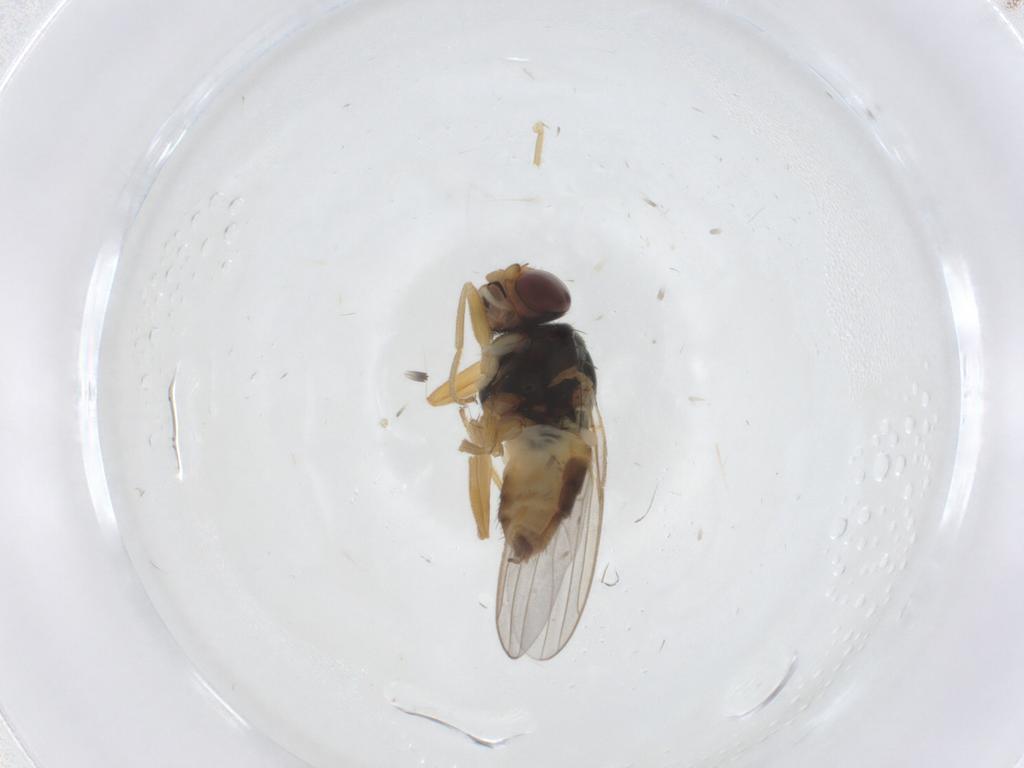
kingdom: Animalia
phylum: Arthropoda
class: Insecta
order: Diptera
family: Chloropidae
